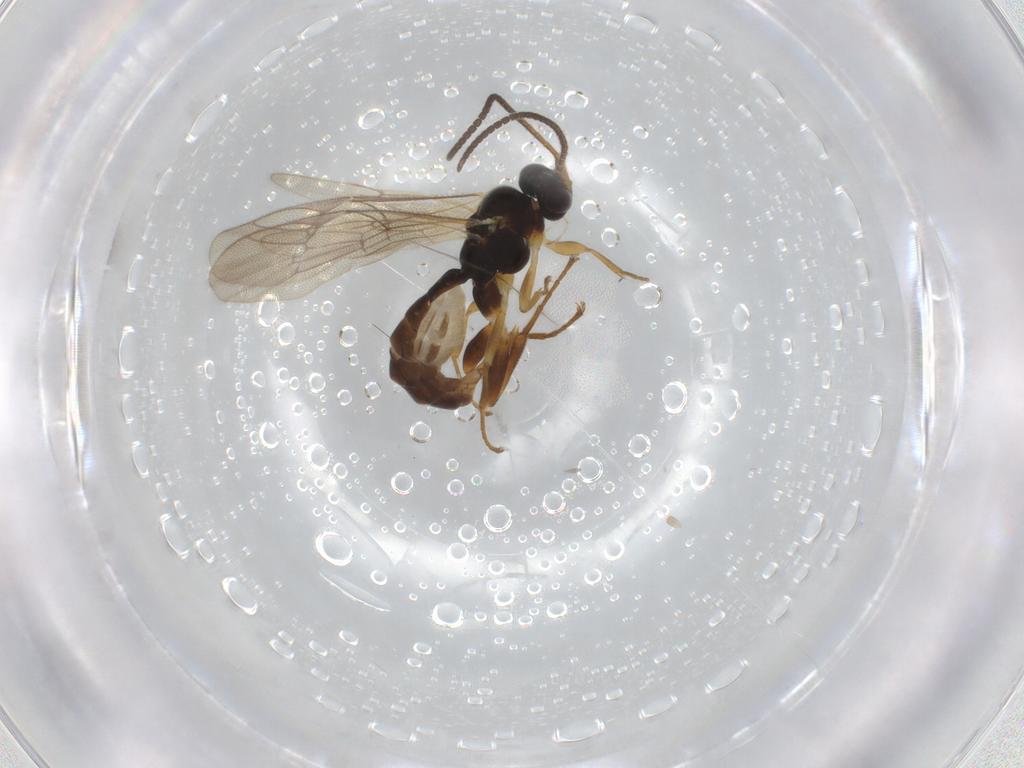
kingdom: Animalia
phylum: Arthropoda
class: Insecta
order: Hymenoptera
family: Ichneumonidae
